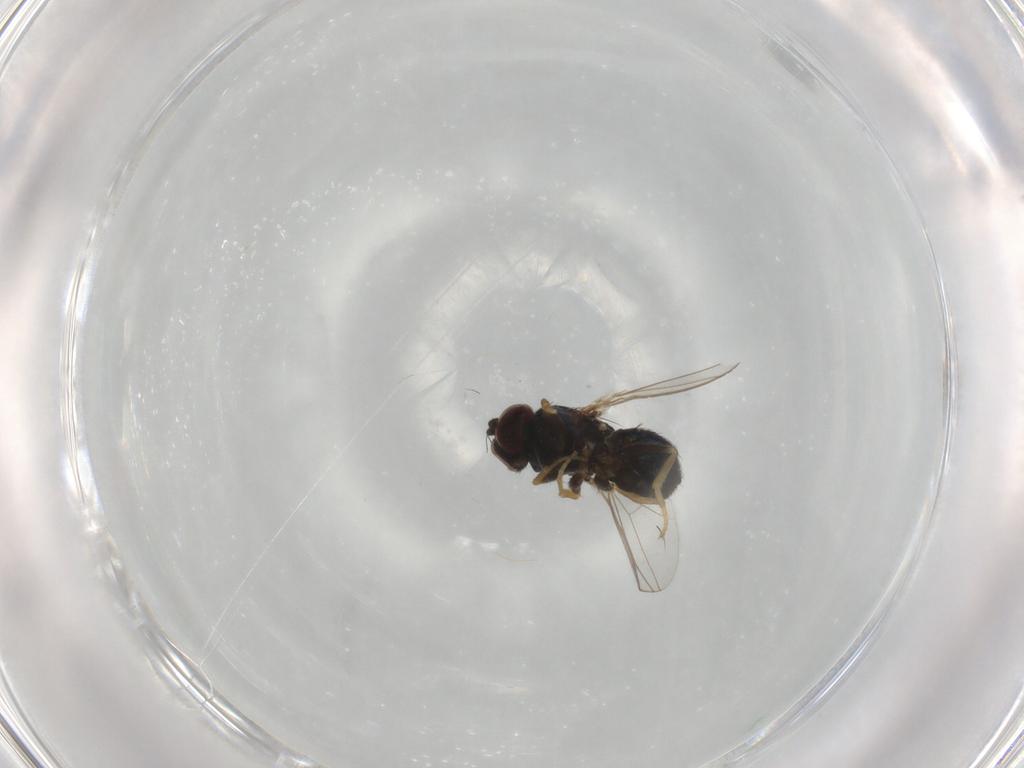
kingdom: Animalia
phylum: Arthropoda
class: Insecta
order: Diptera
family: Dolichopodidae
